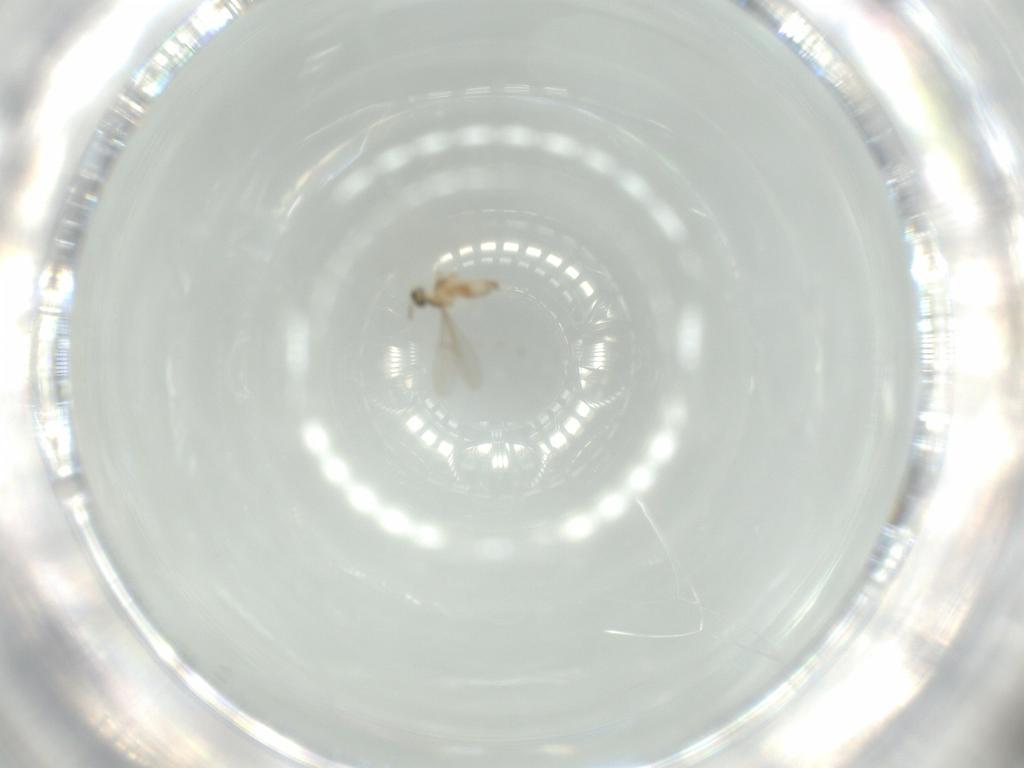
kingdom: Animalia
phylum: Arthropoda
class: Insecta
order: Diptera
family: Cecidomyiidae
